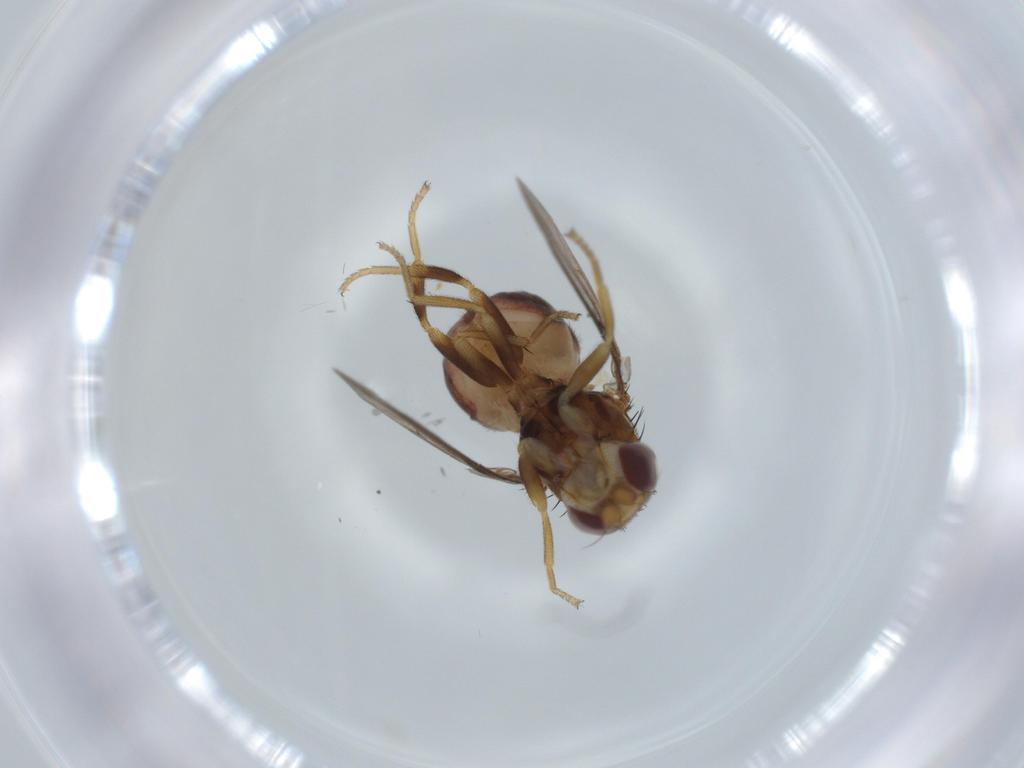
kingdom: Animalia
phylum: Arthropoda
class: Insecta
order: Diptera
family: Chloropidae
